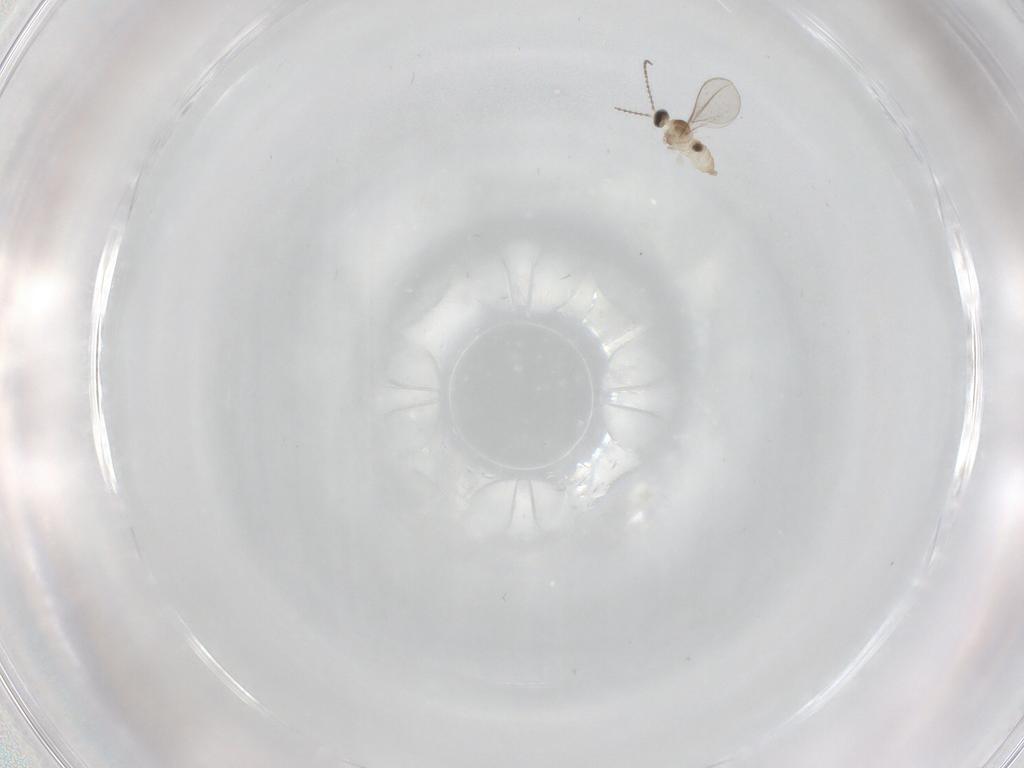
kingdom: Animalia
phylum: Arthropoda
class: Insecta
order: Diptera
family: Cecidomyiidae
